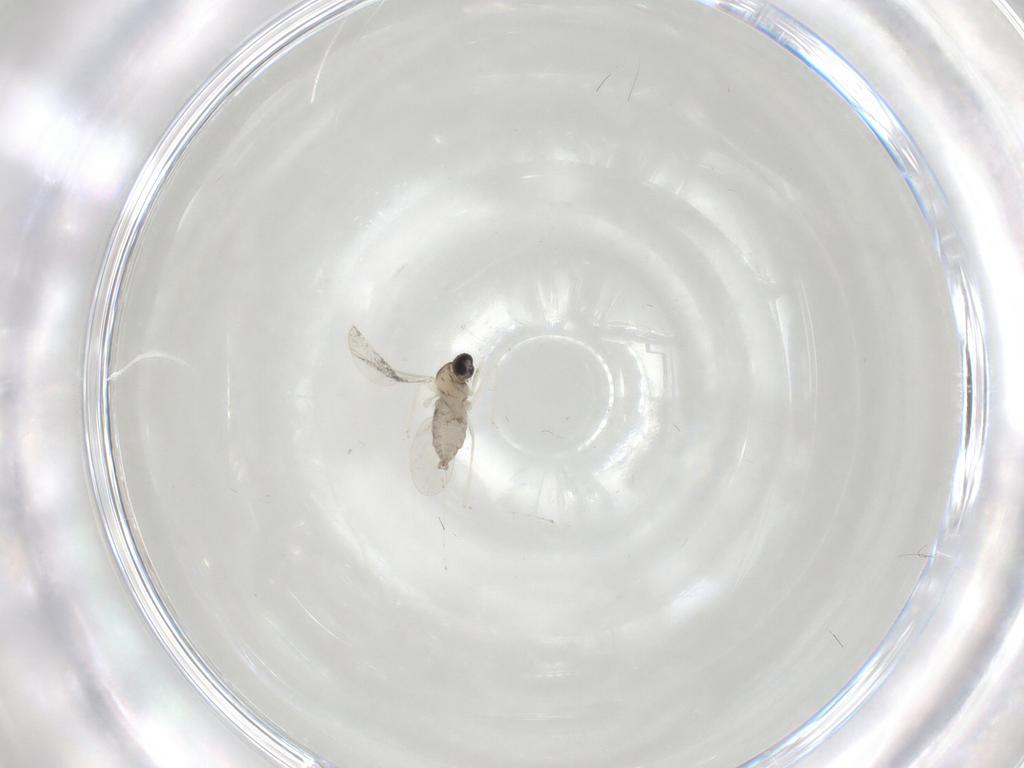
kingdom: Animalia
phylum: Arthropoda
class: Insecta
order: Diptera
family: Cecidomyiidae
